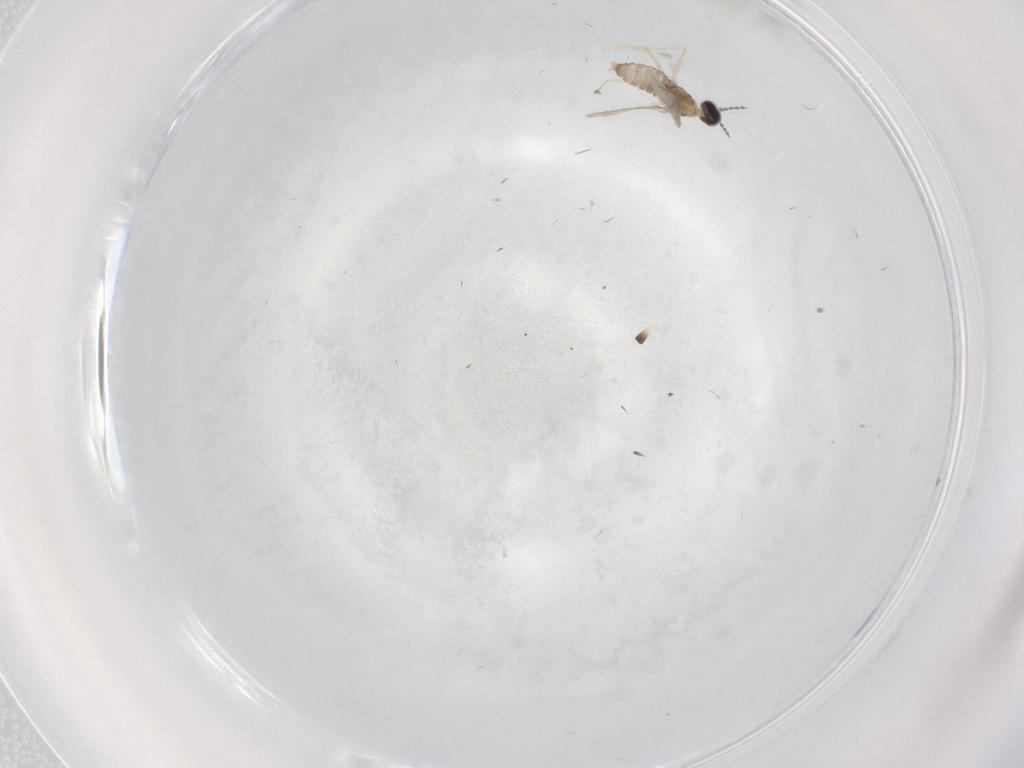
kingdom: Animalia
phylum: Arthropoda
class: Insecta
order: Diptera
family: Cecidomyiidae
